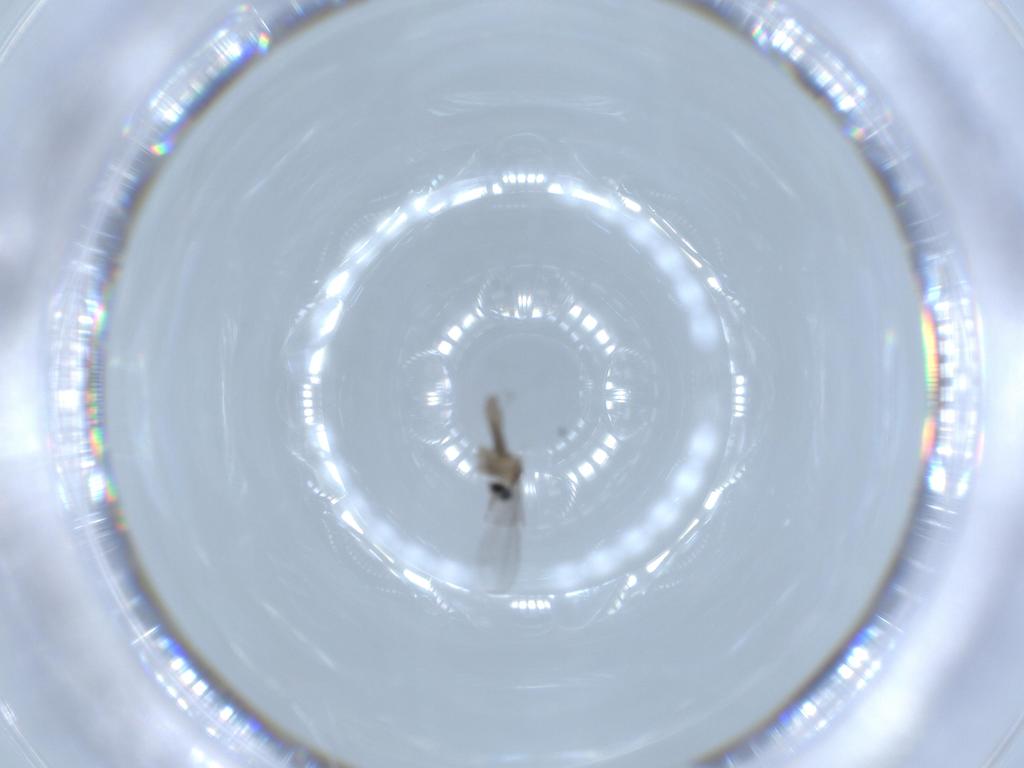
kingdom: Animalia
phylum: Arthropoda
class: Insecta
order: Diptera
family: Cecidomyiidae
